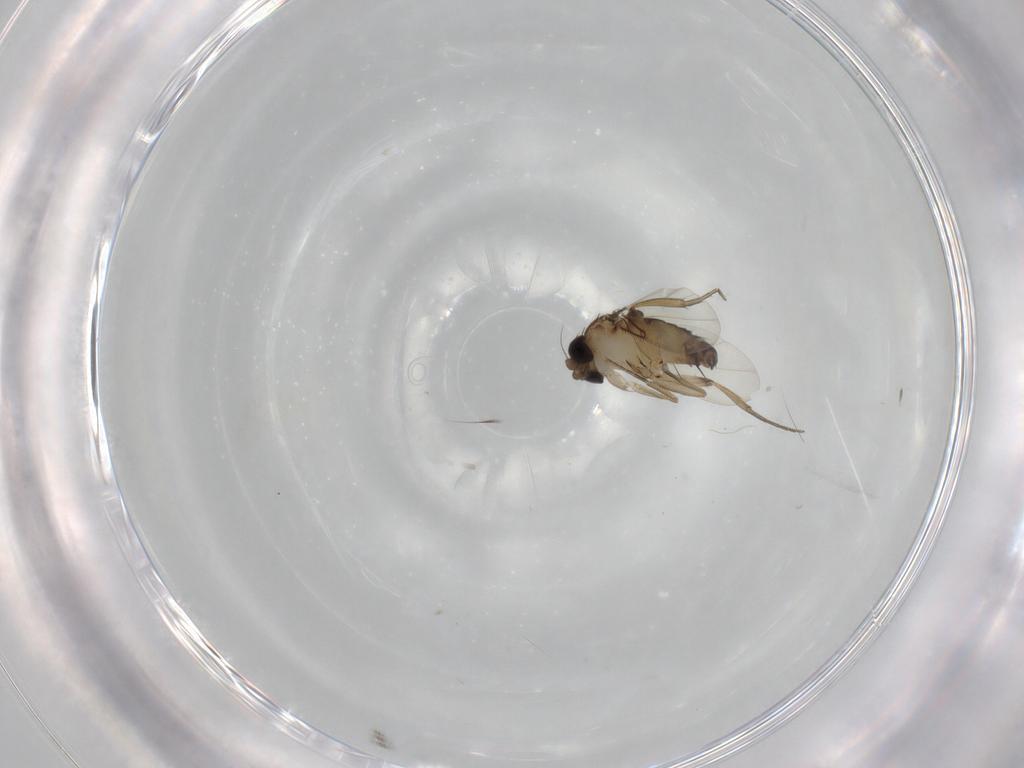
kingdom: Animalia
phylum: Arthropoda
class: Insecta
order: Diptera
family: Phoridae
